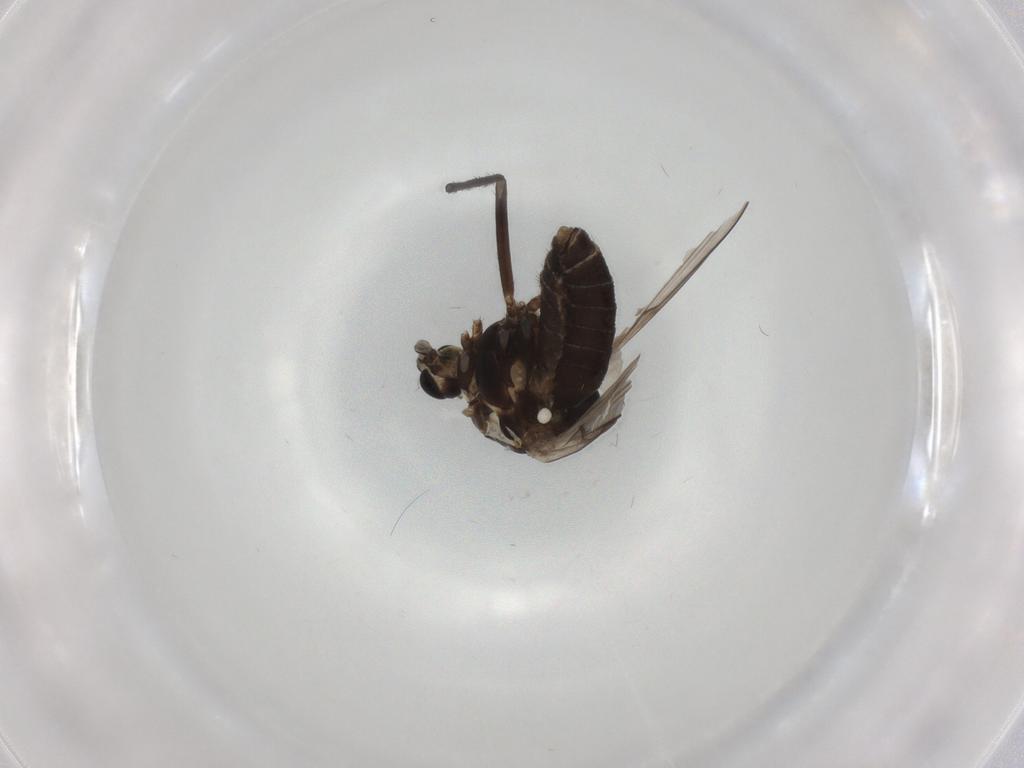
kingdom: Animalia
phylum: Arthropoda
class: Insecta
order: Diptera
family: Chironomidae
